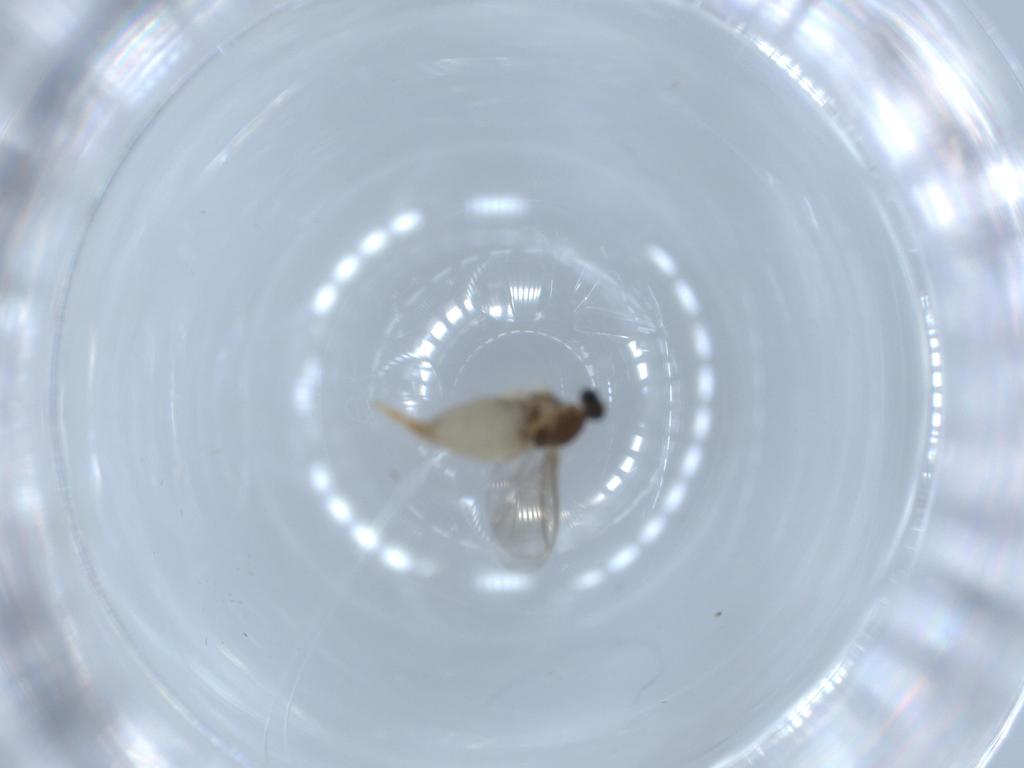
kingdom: Animalia
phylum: Arthropoda
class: Insecta
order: Diptera
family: Cecidomyiidae
